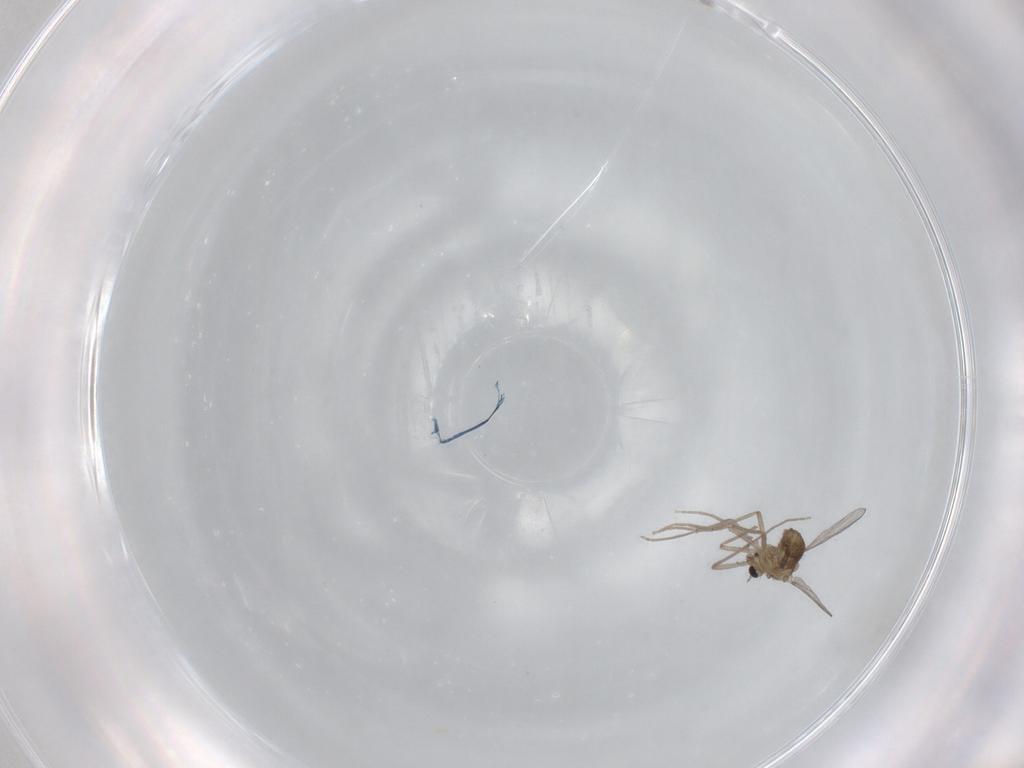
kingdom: Animalia
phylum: Arthropoda
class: Insecta
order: Diptera
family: Chironomidae
